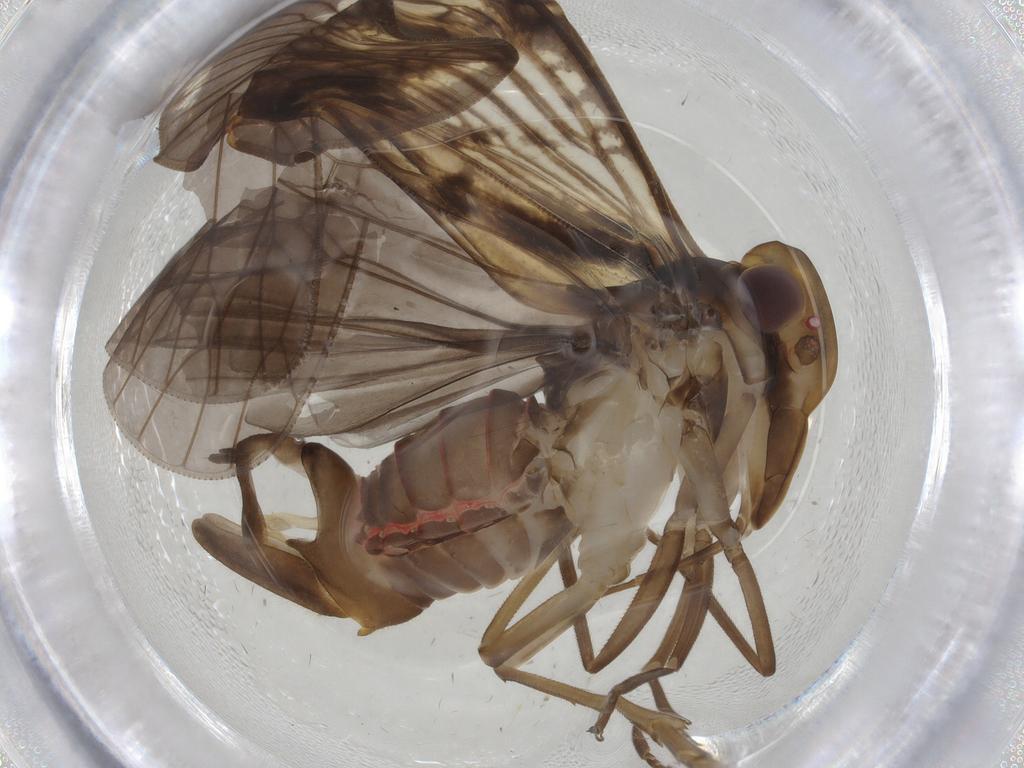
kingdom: Animalia
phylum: Arthropoda
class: Insecta
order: Hemiptera
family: Cixiidae
